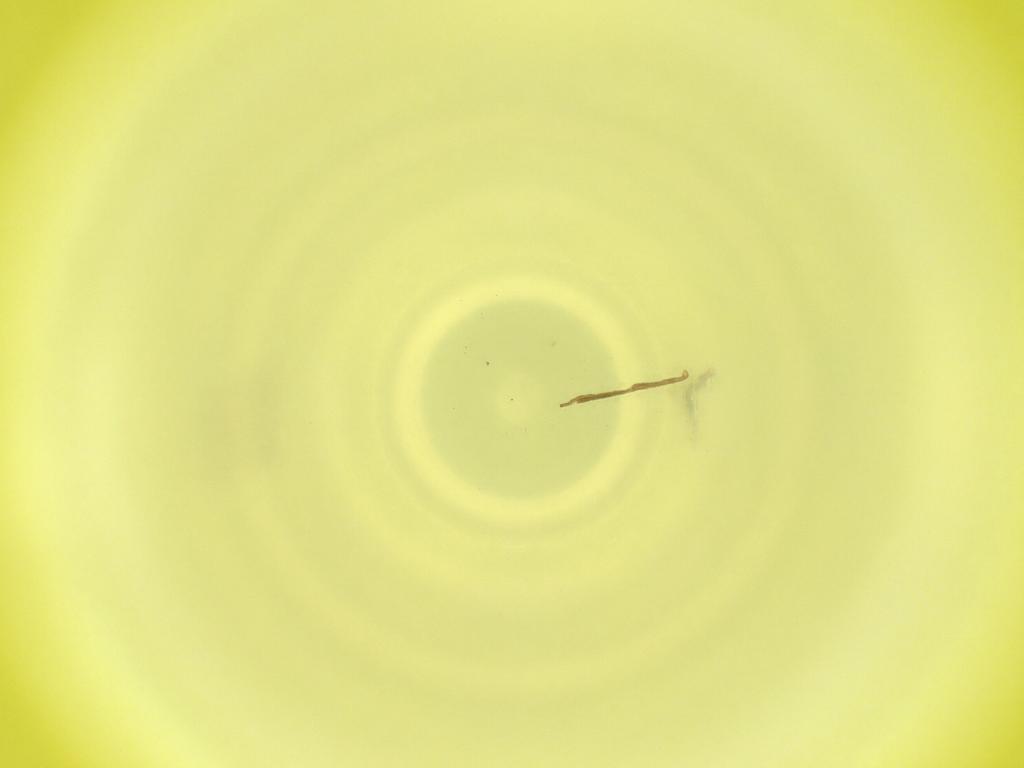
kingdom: Animalia
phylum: Arthropoda
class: Insecta
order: Diptera
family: Cecidomyiidae
